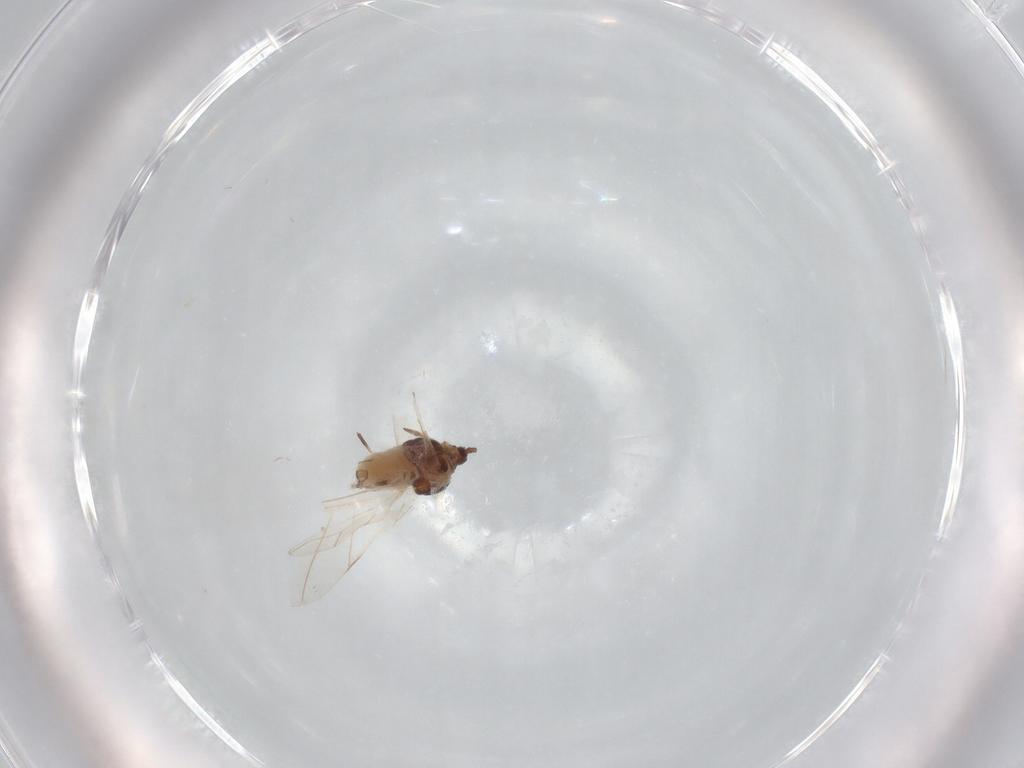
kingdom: Animalia
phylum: Arthropoda
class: Insecta
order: Hemiptera
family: Aphididae
